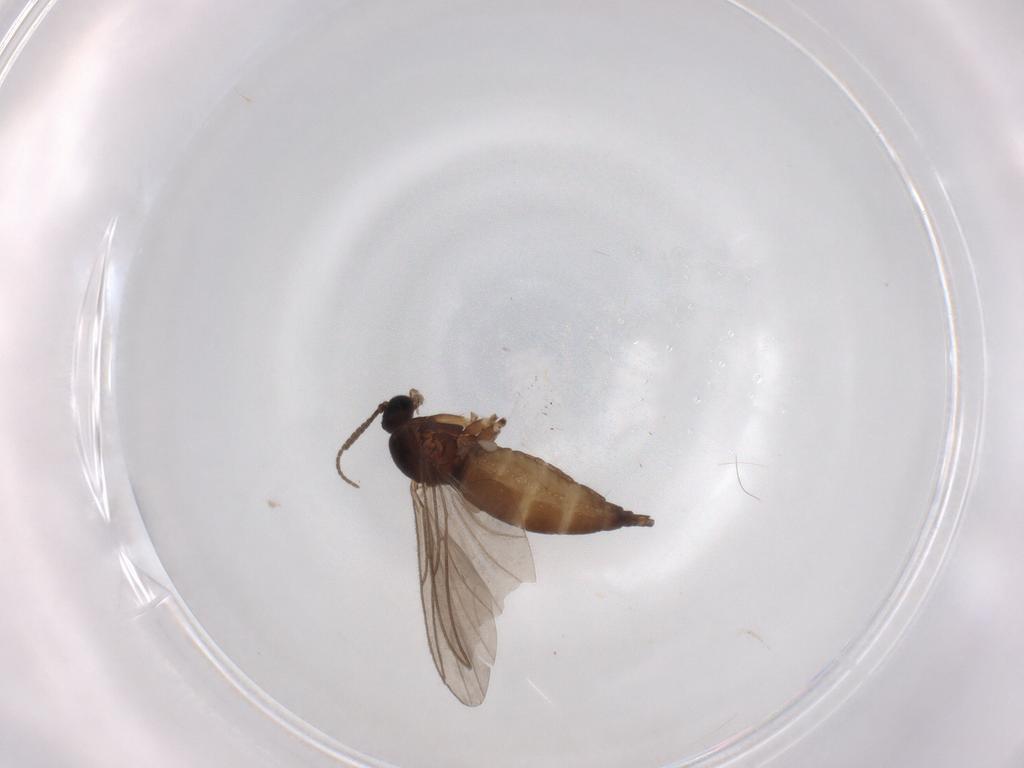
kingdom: Animalia
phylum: Arthropoda
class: Insecta
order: Diptera
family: Sciaridae
